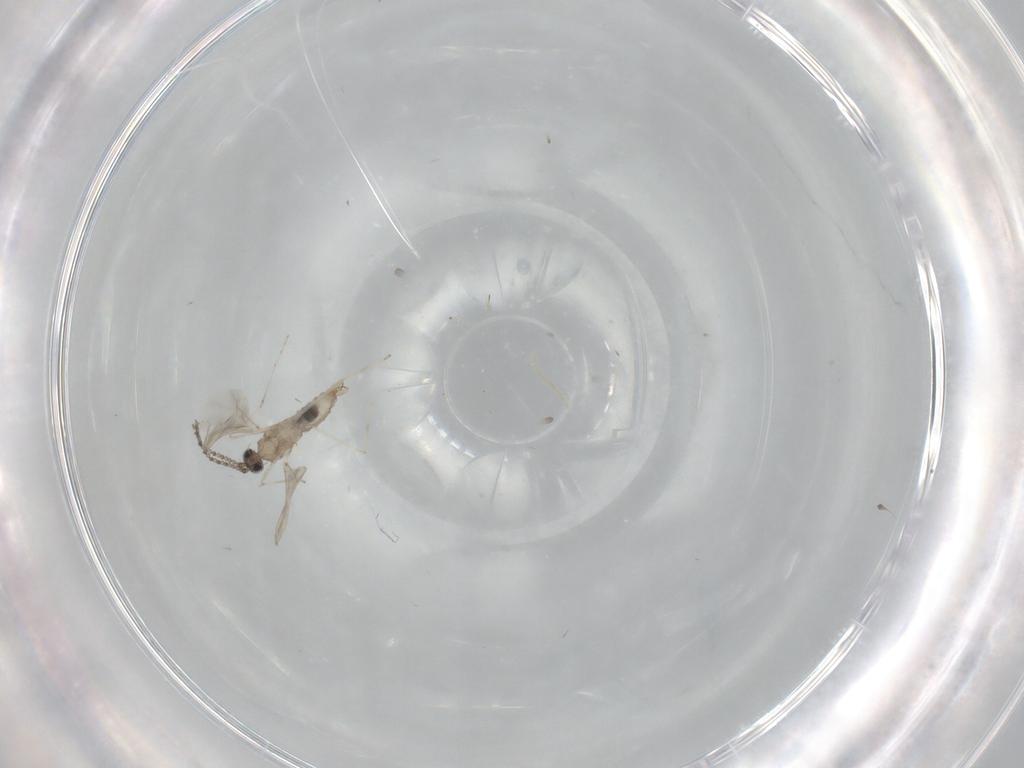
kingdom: Animalia
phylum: Arthropoda
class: Insecta
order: Diptera
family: Cecidomyiidae
